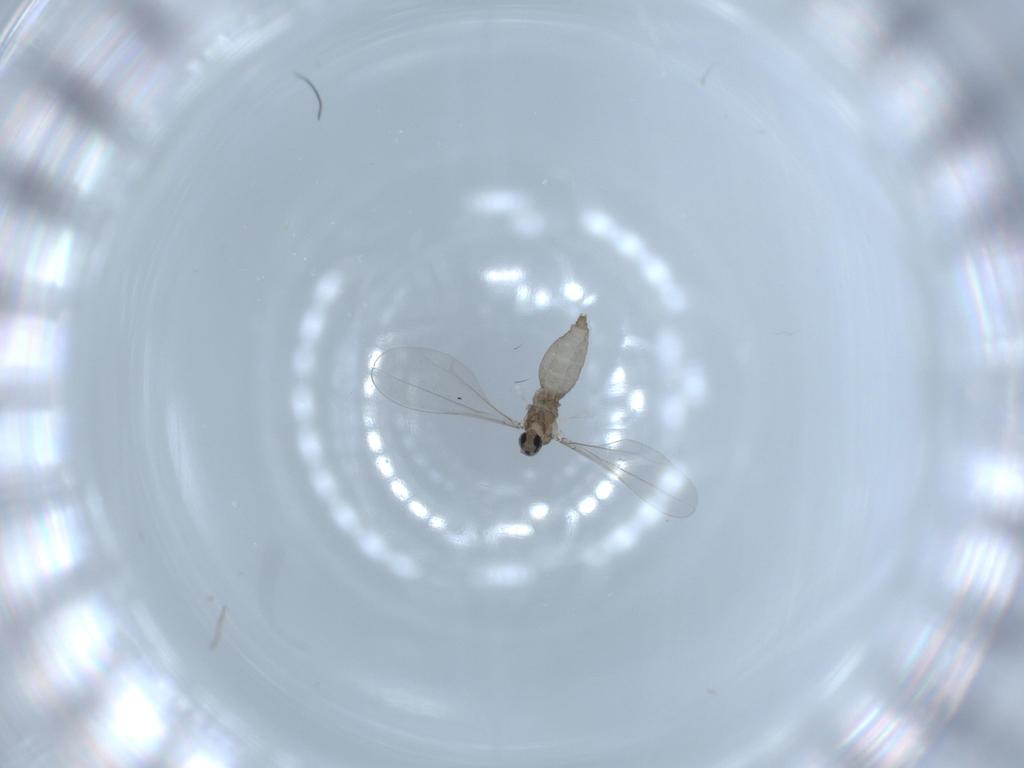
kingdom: Animalia
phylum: Arthropoda
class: Insecta
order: Diptera
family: Cecidomyiidae
